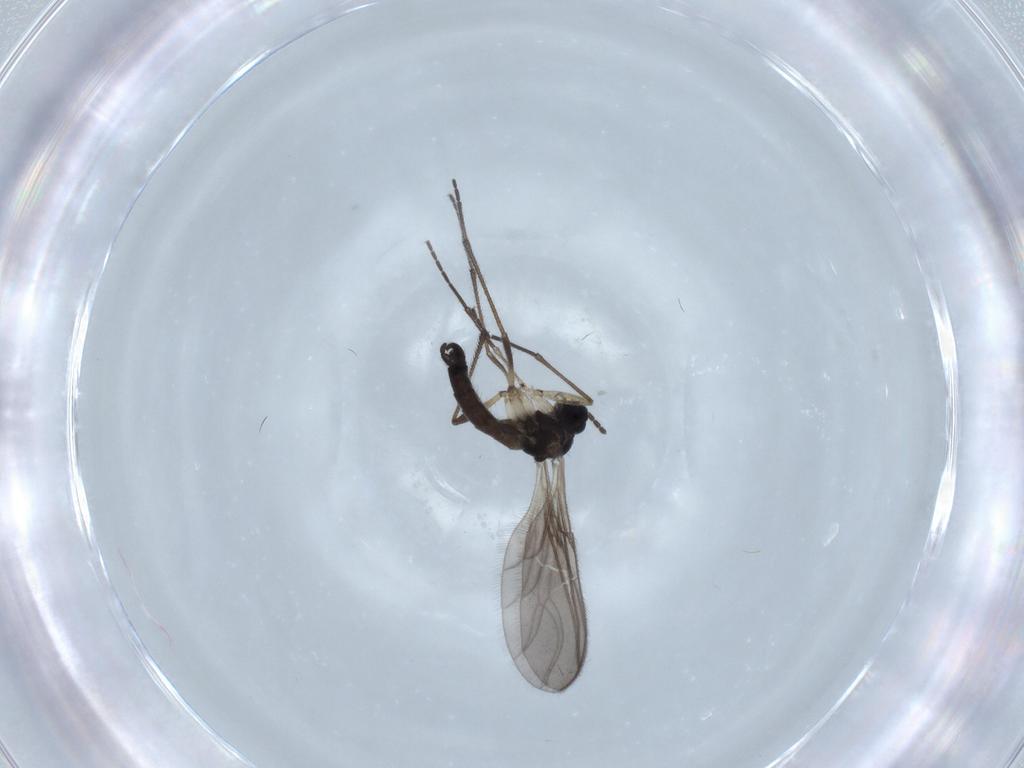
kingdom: Animalia
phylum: Arthropoda
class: Insecta
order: Diptera
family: Sciaridae
